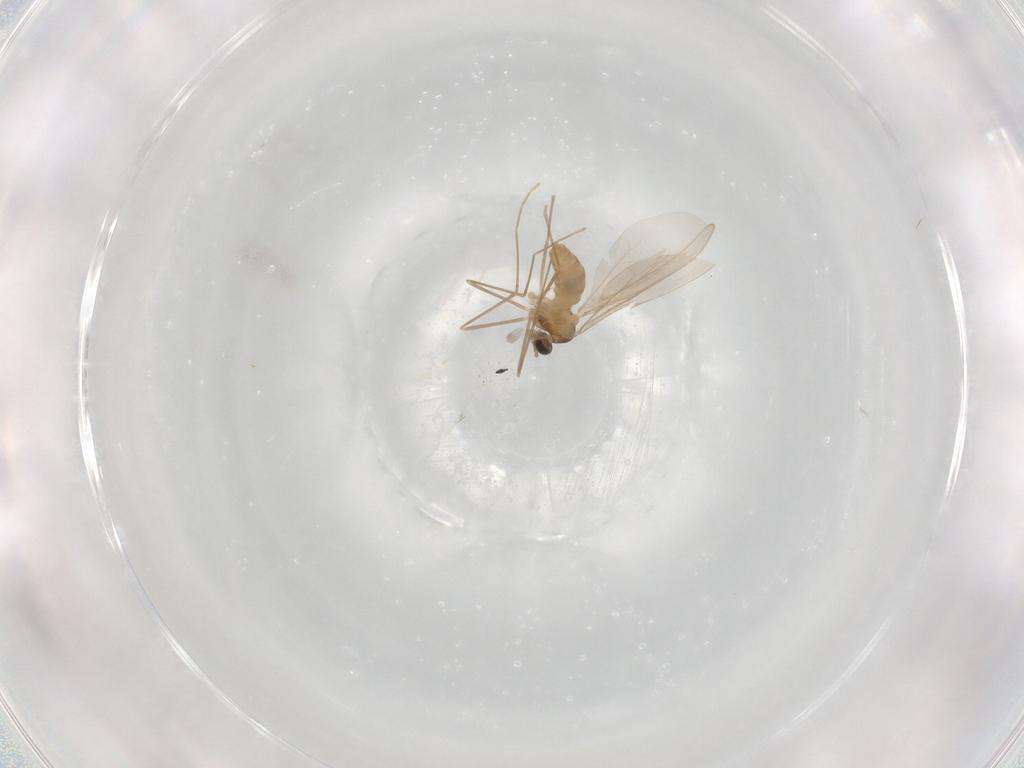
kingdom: Animalia
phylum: Arthropoda
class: Insecta
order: Diptera
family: Cecidomyiidae
